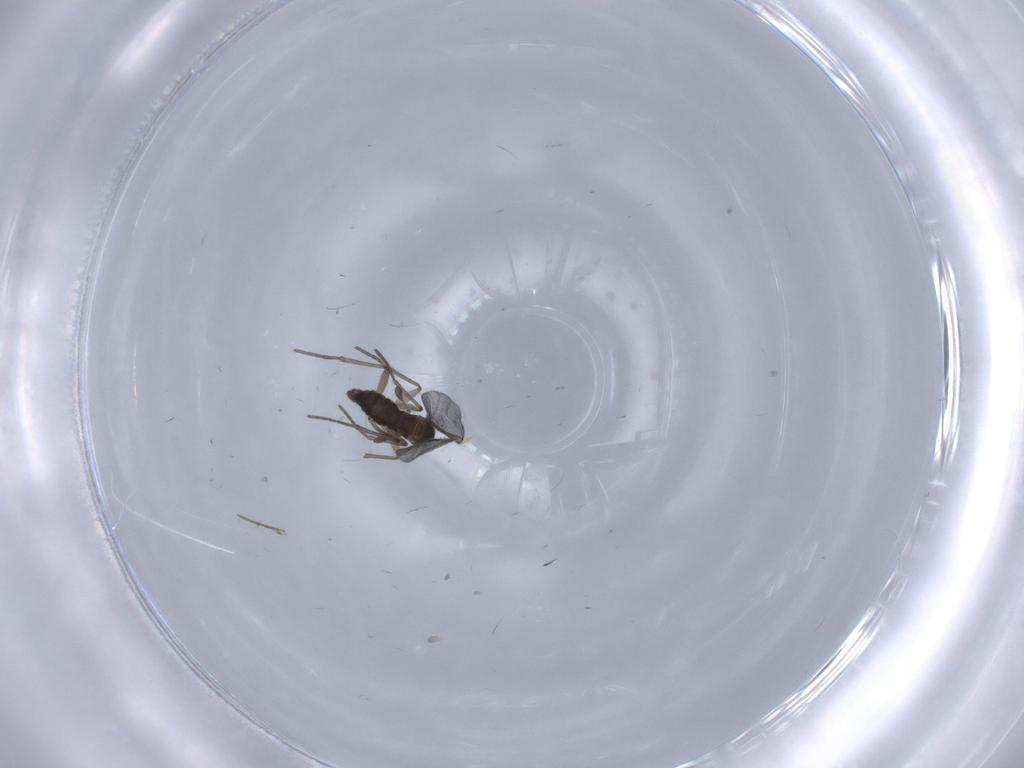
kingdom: Animalia
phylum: Arthropoda
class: Insecta
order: Diptera
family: Chironomidae
